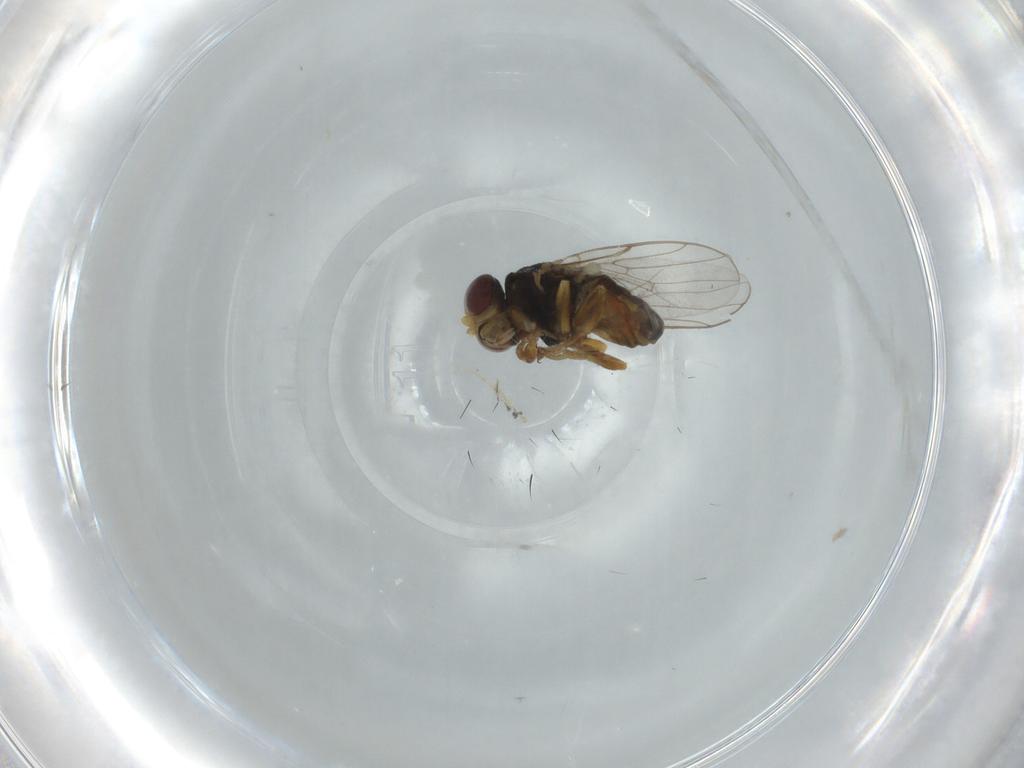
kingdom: Animalia
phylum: Arthropoda
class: Insecta
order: Diptera
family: Chloropidae
